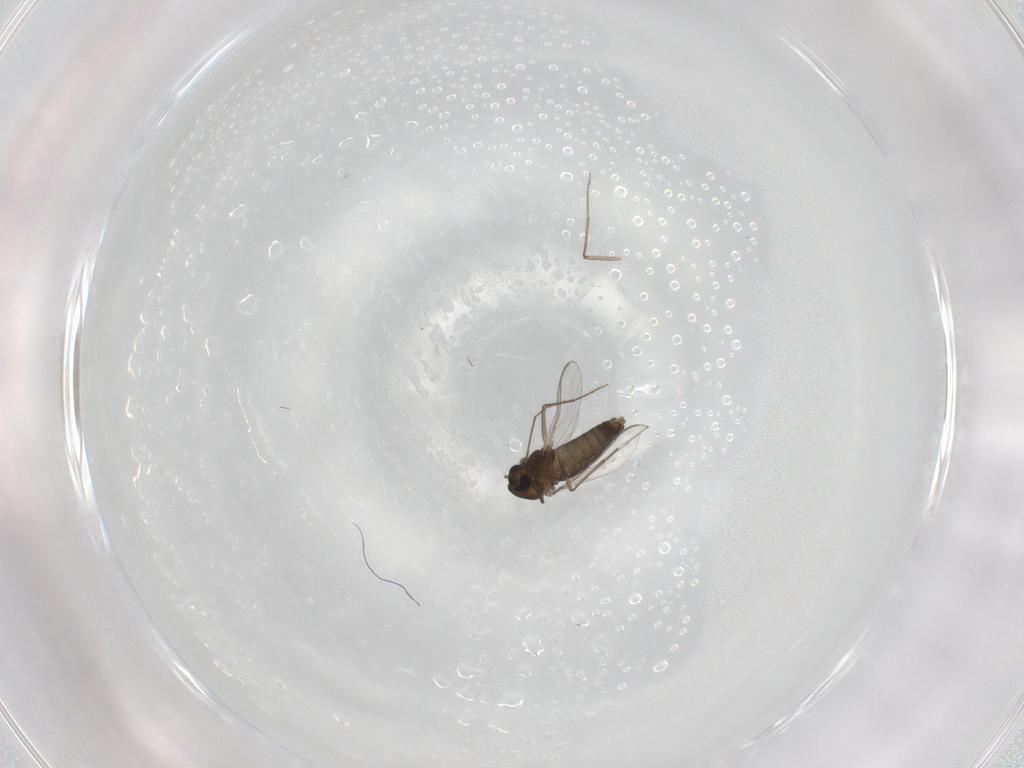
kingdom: Animalia
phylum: Arthropoda
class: Insecta
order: Diptera
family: Chironomidae
